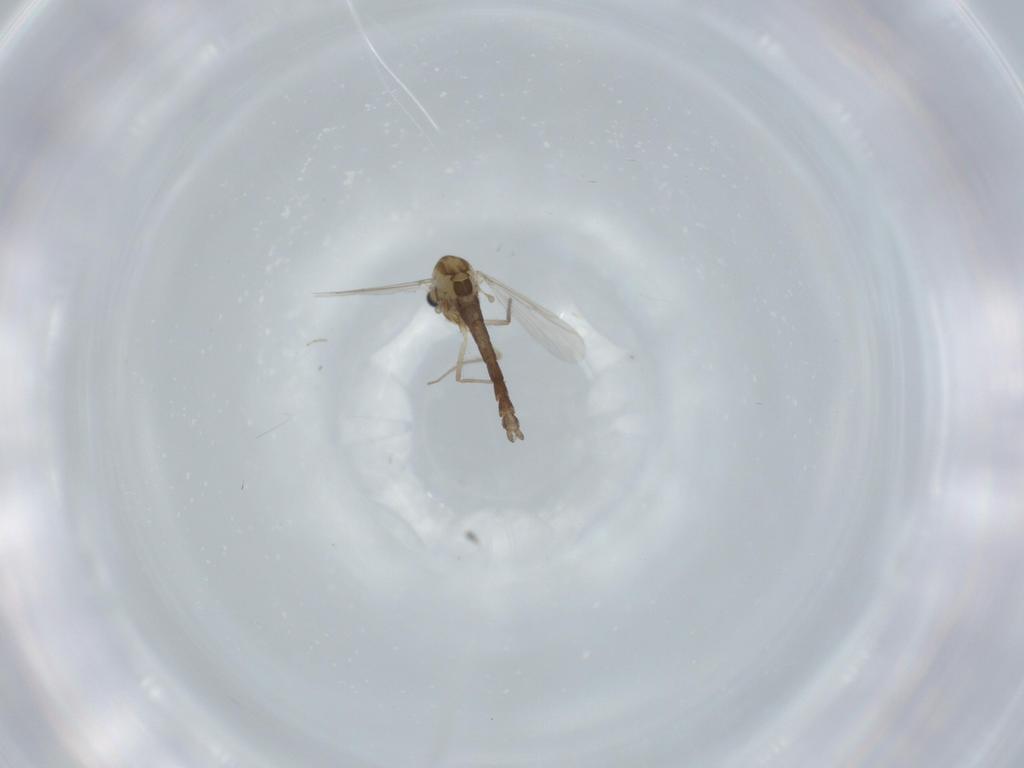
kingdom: Animalia
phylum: Arthropoda
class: Insecta
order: Diptera
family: Chironomidae
